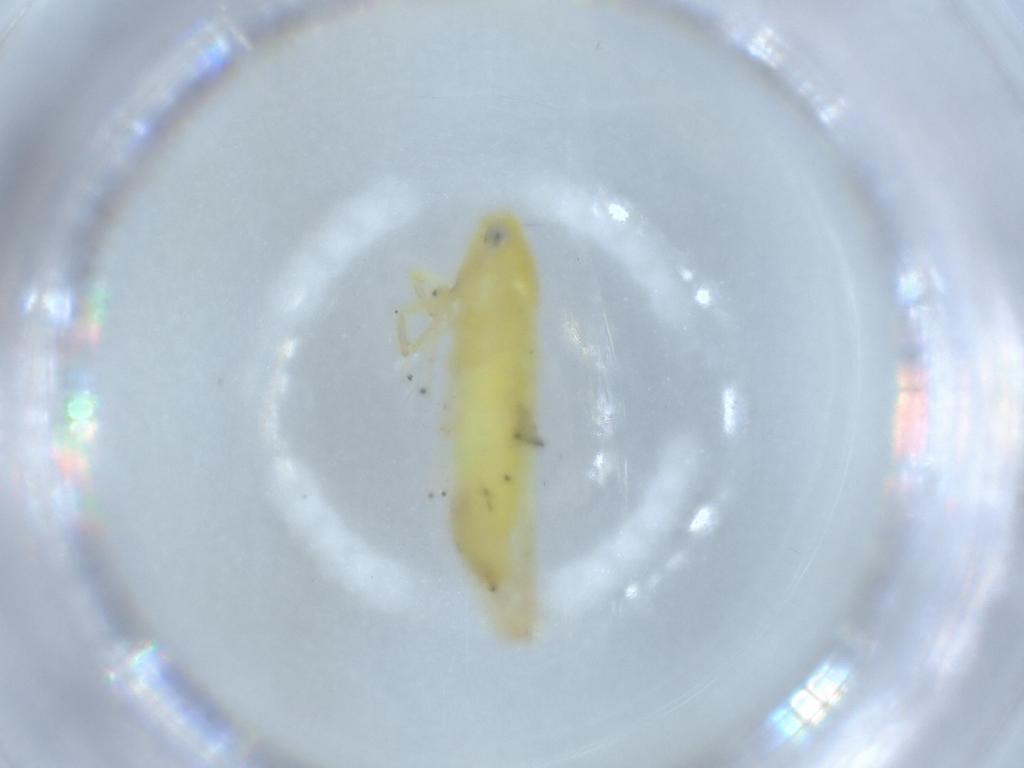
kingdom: Animalia
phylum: Arthropoda
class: Insecta
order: Hemiptera
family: Cicadellidae
